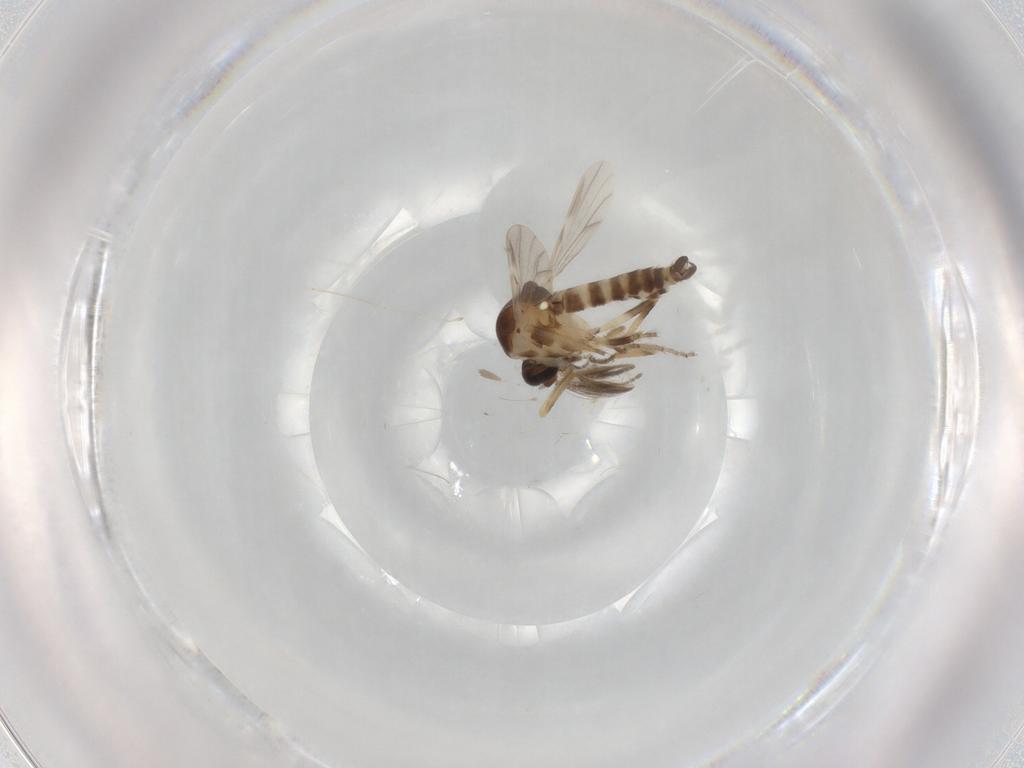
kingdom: Animalia
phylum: Arthropoda
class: Insecta
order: Diptera
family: Ceratopogonidae
